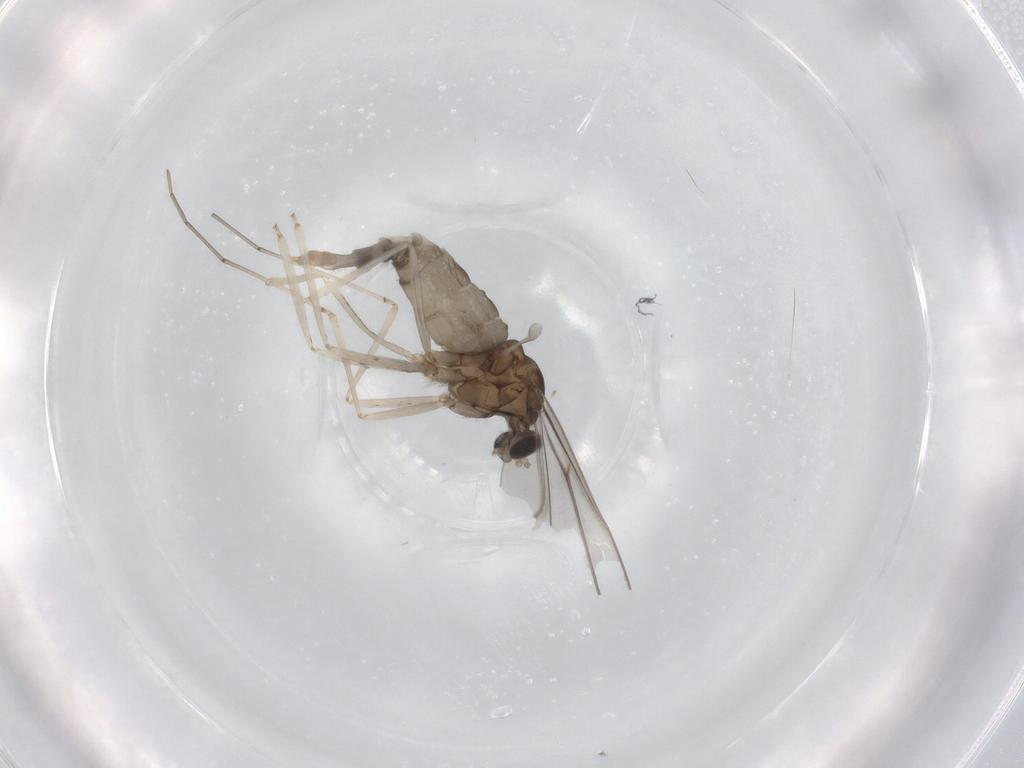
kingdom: Animalia
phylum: Arthropoda
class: Insecta
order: Diptera
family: Cecidomyiidae
